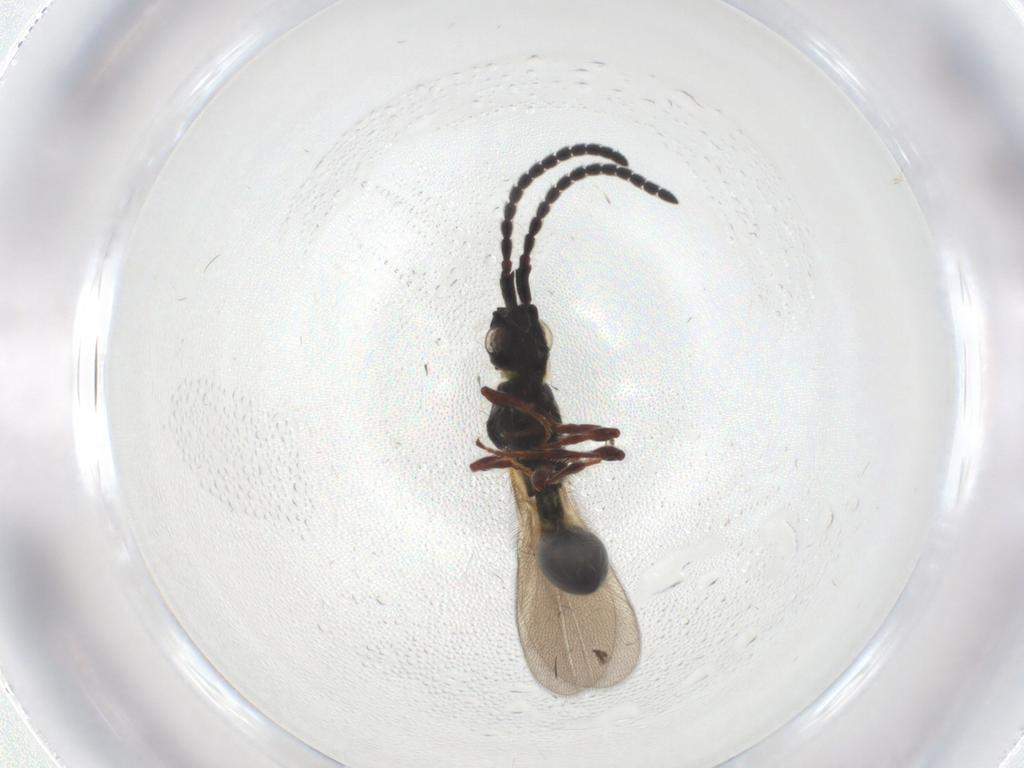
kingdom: Animalia
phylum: Arthropoda
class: Insecta
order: Hymenoptera
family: Diapriidae
